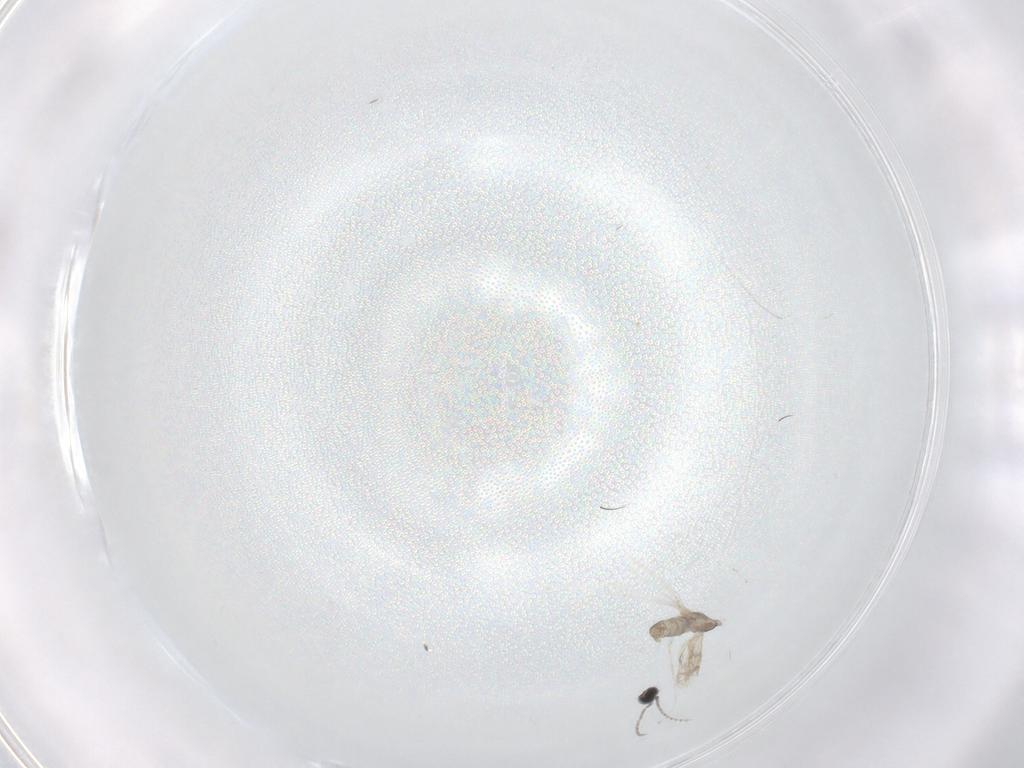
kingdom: Animalia
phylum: Arthropoda
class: Insecta
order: Diptera
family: Cecidomyiidae
